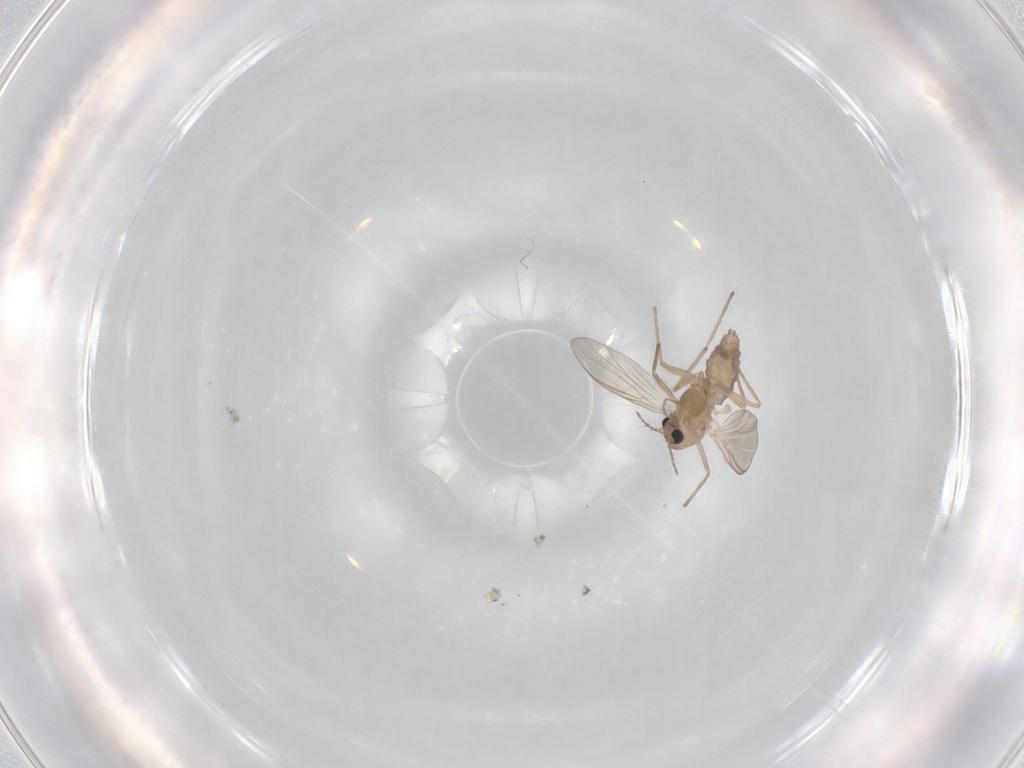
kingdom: Animalia
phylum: Arthropoda
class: Insecta
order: Diptera
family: Chironomidae
